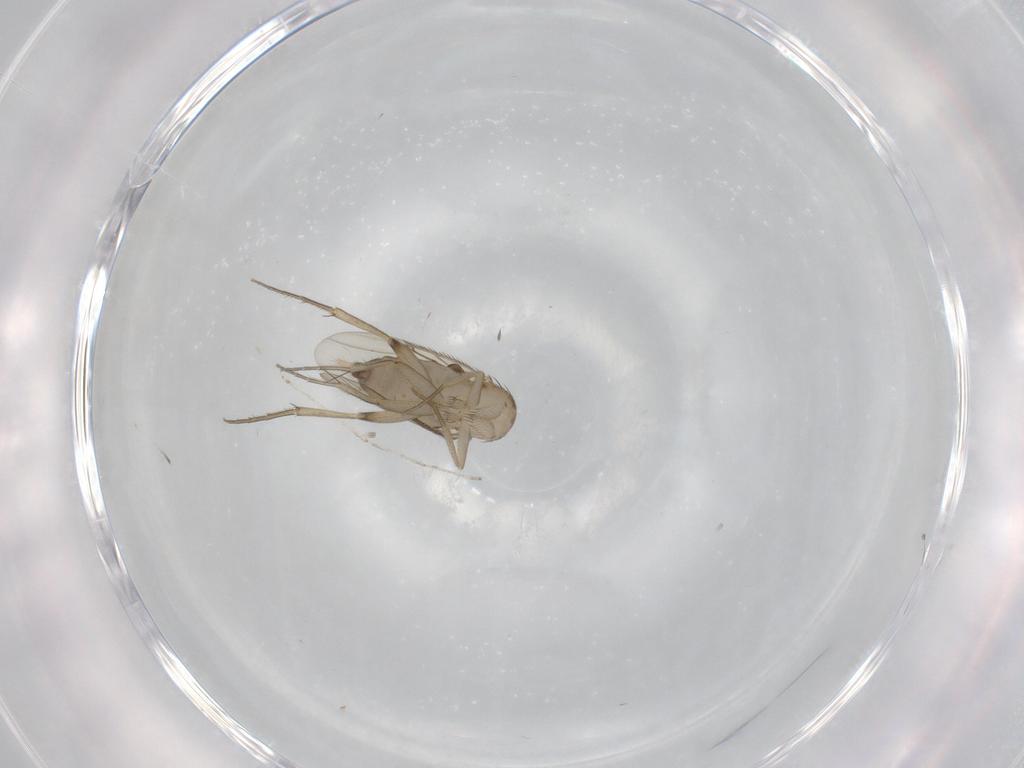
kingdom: Animalia
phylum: Arthropoda
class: Insecta
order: Diptera
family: Phoridae
